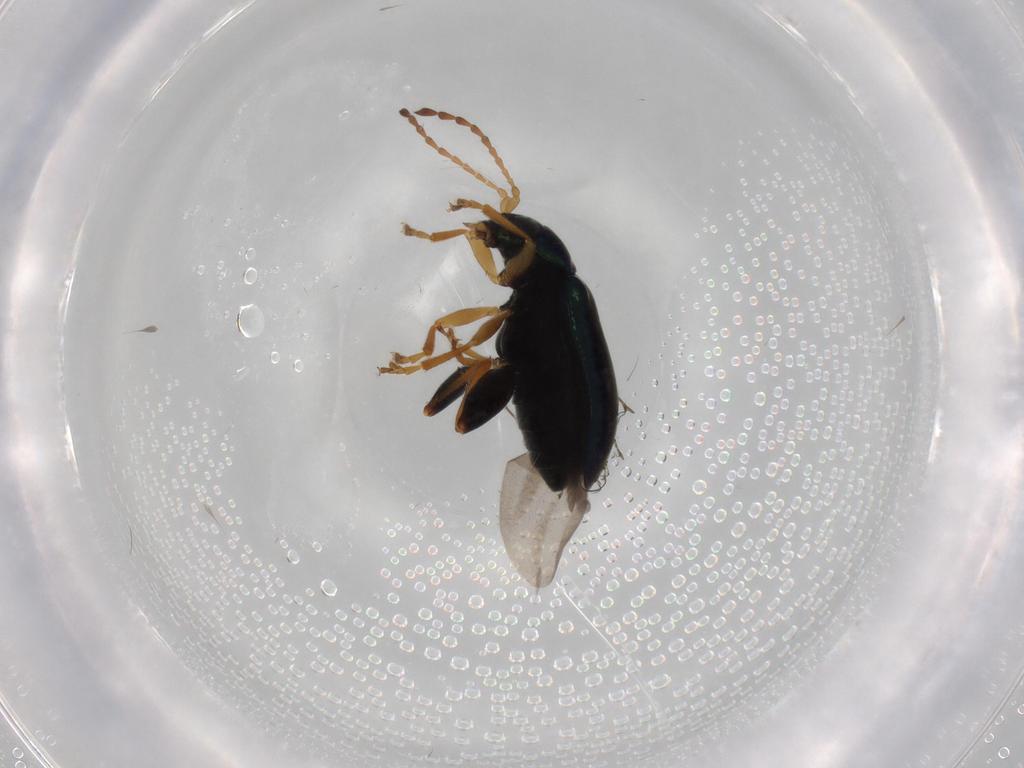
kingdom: Animalia
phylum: Arthropoda
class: Insecta
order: Coleoptera
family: Chrysomelidae
